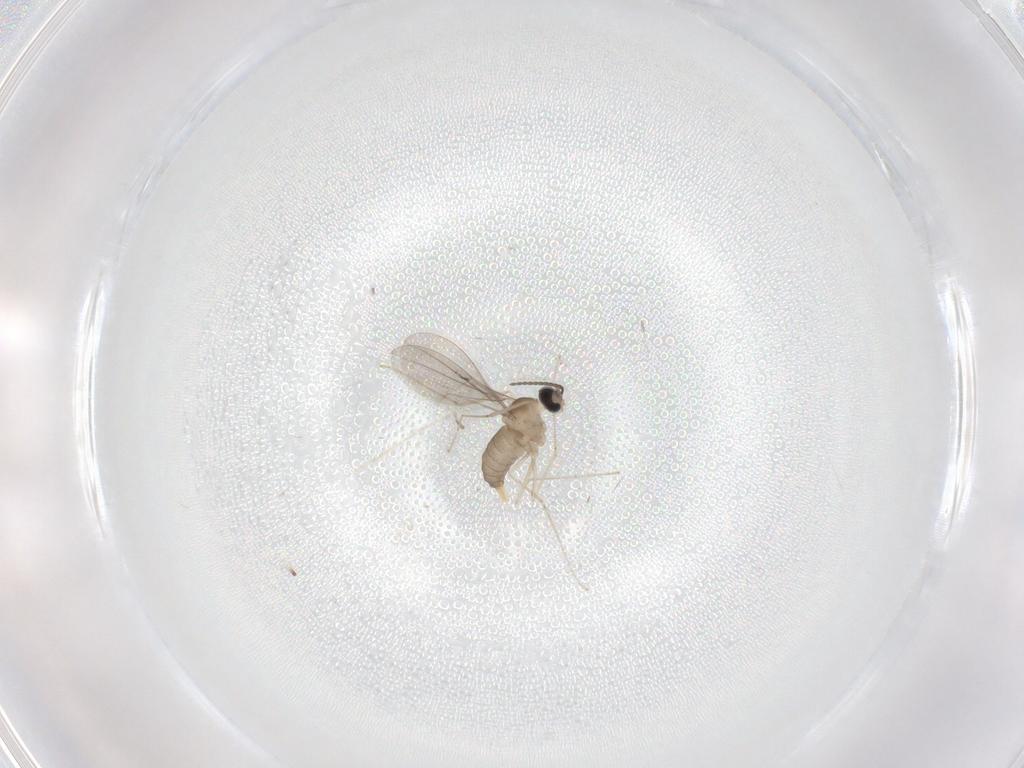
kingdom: Animalia
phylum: Arthropoda
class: Insecta
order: Diptera
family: Cecidomyiidae
